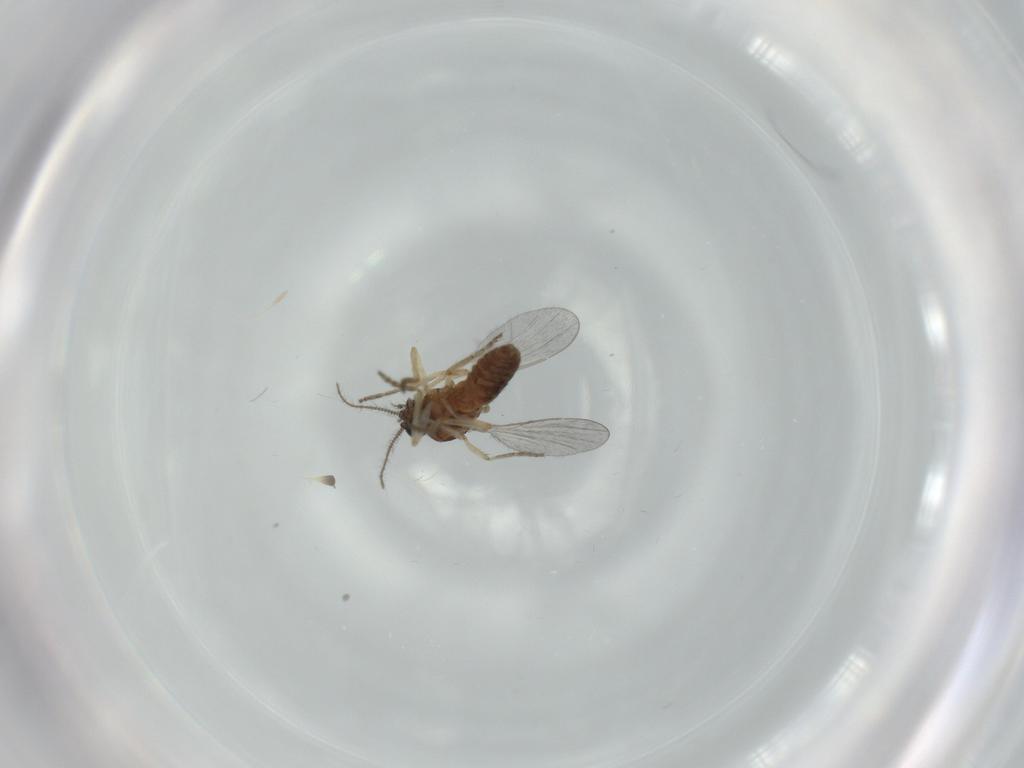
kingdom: Animalia
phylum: Arthropoda
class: Insecta
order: Diptera
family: Ceratopogonidae
